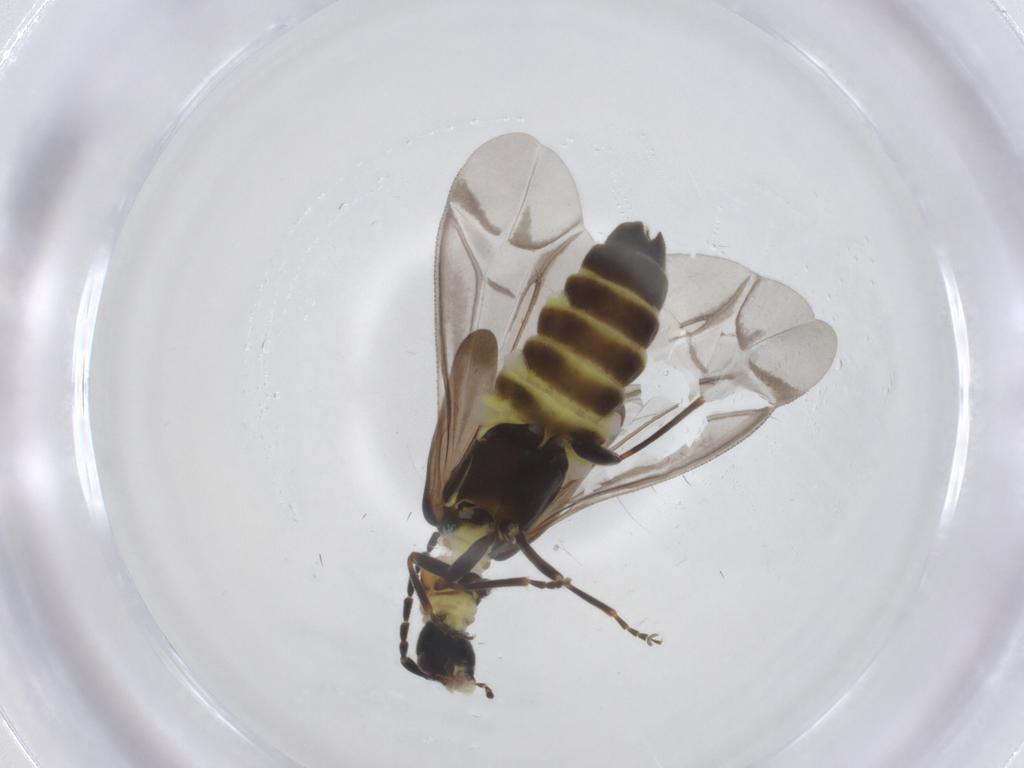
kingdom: Animalia
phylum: Arthropoda
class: Insecta
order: Coleoptera
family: Cantharidae
